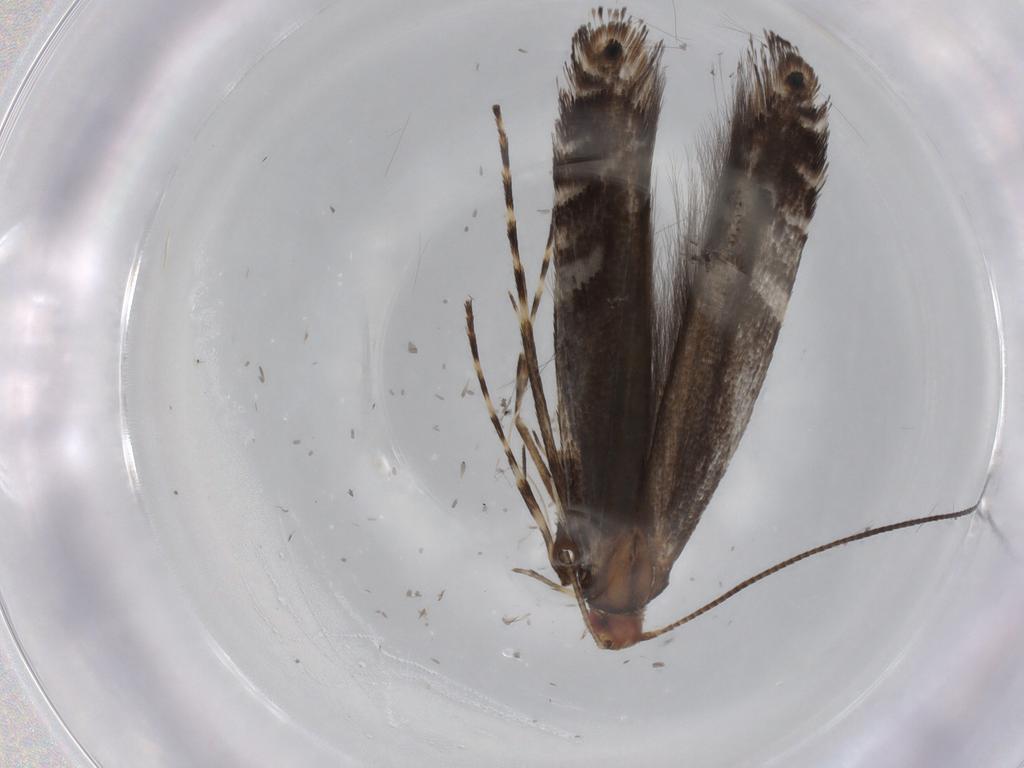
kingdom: Animalia
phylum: Arthropoda
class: Insecta
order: Lepidoptera
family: Gracillariidae
